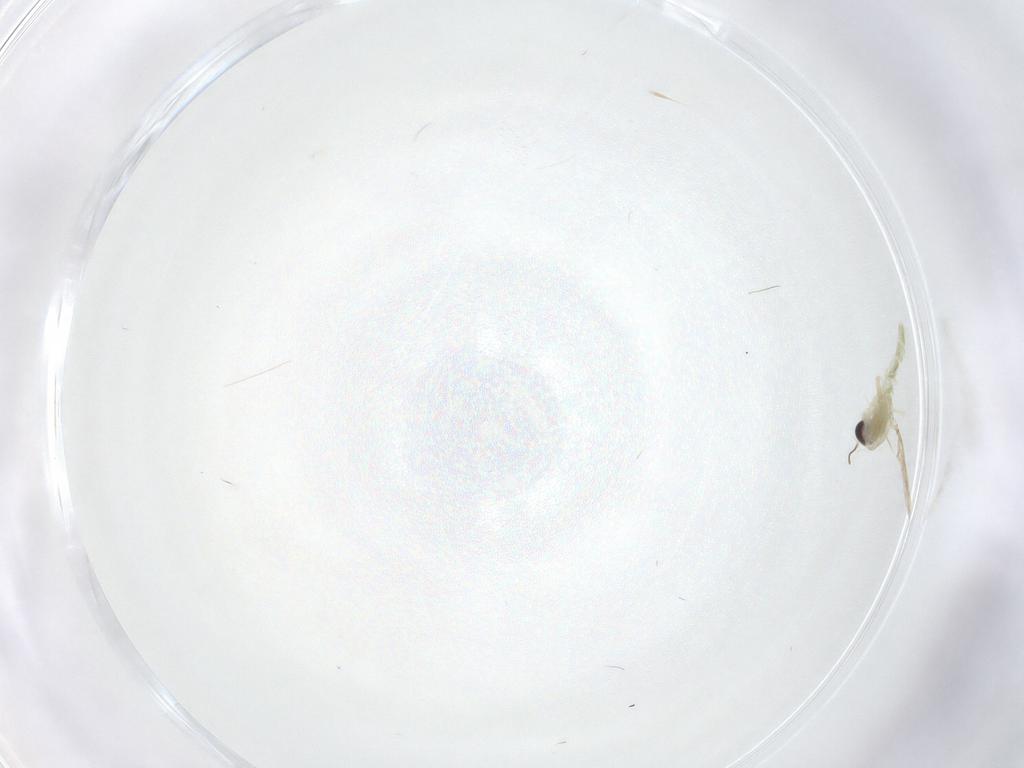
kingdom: Animalia
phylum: Arthropoda
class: Insecta
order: Diptera
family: Chironomidae
